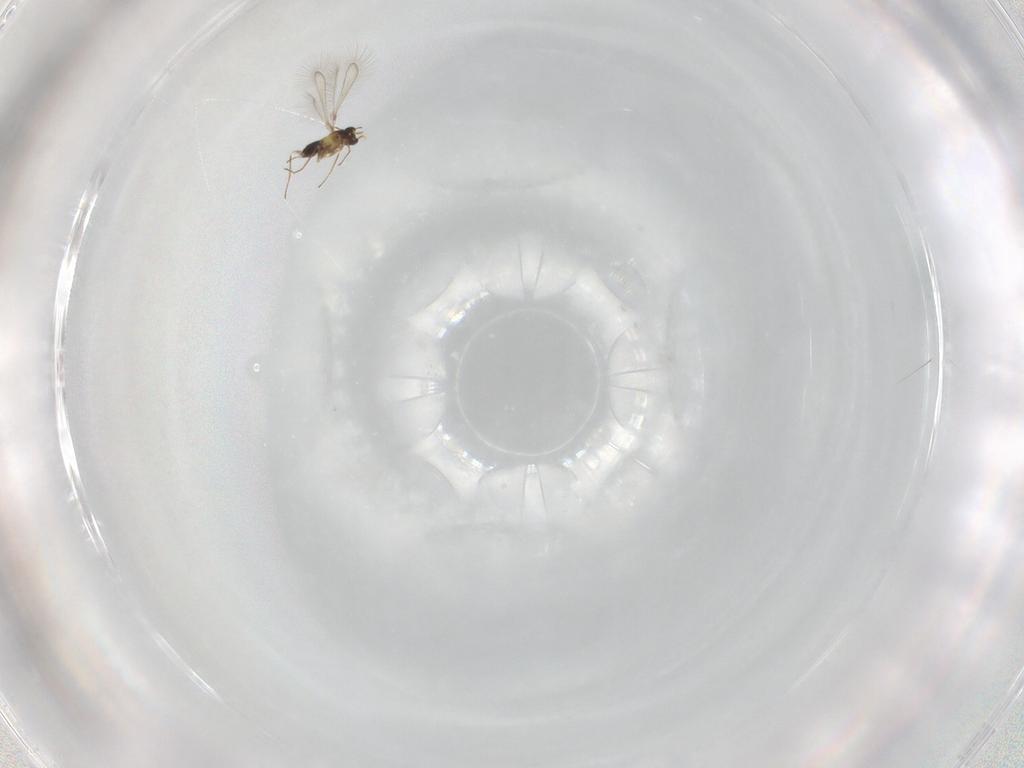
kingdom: Animalia
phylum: Arthropoda
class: Insecta
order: Hymenoptera
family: Mymaridae
